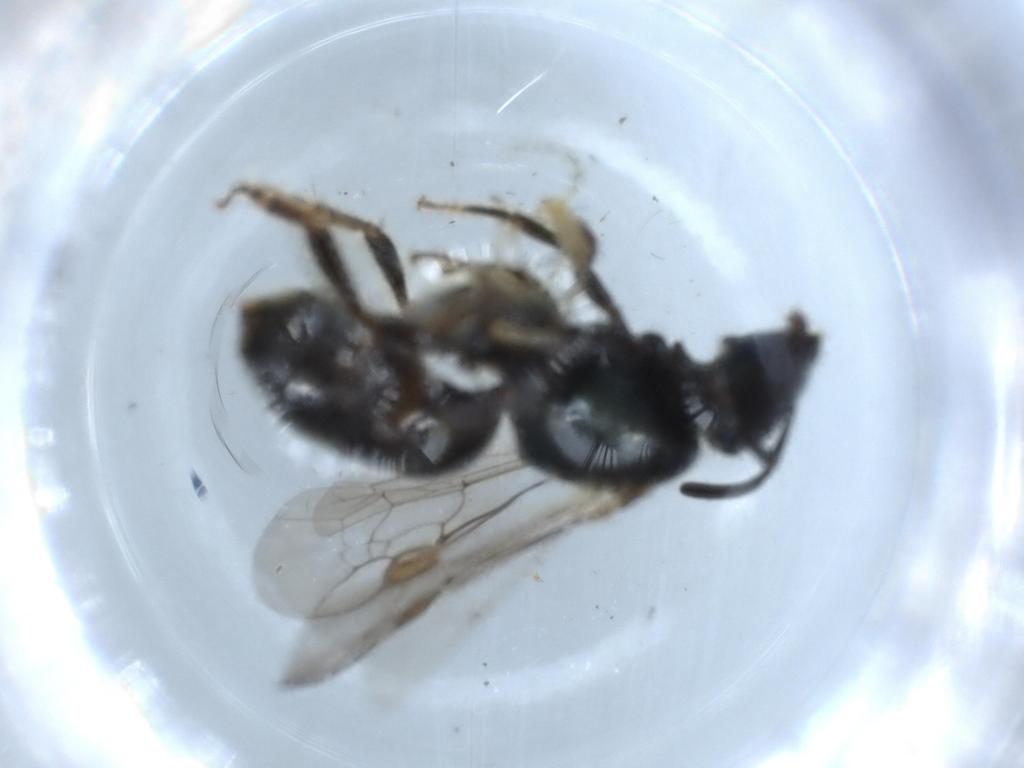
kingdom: Animalia
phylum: Arthropoda
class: Insecta
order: Hymenoptera
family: Halictidae
